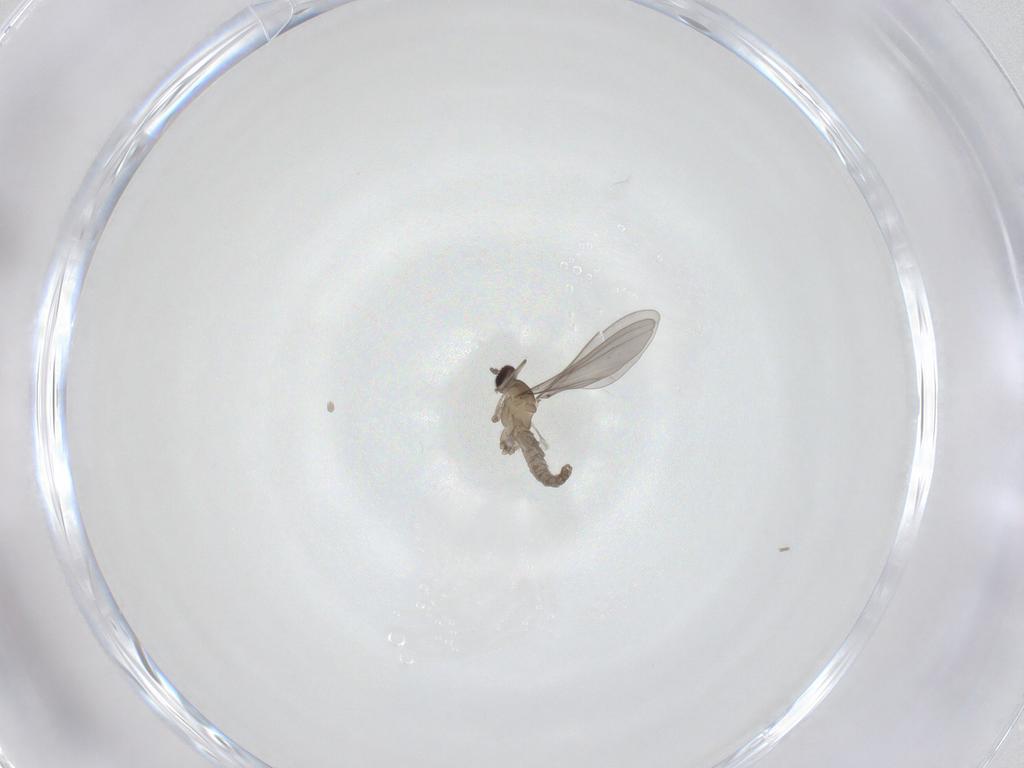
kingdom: Animalia
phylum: Arthropoda
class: Insecta
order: Diptera
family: Cecidomyiidae
